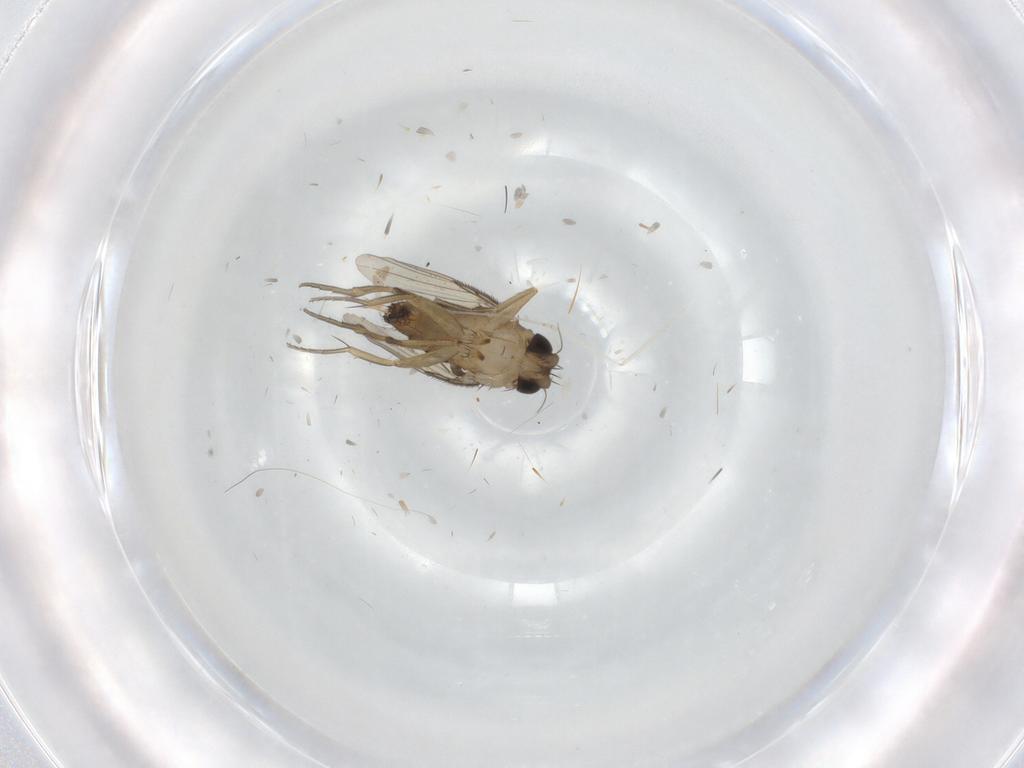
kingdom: Animalia
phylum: Arthropoda
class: Insecta
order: Diptera
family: Phoridae
